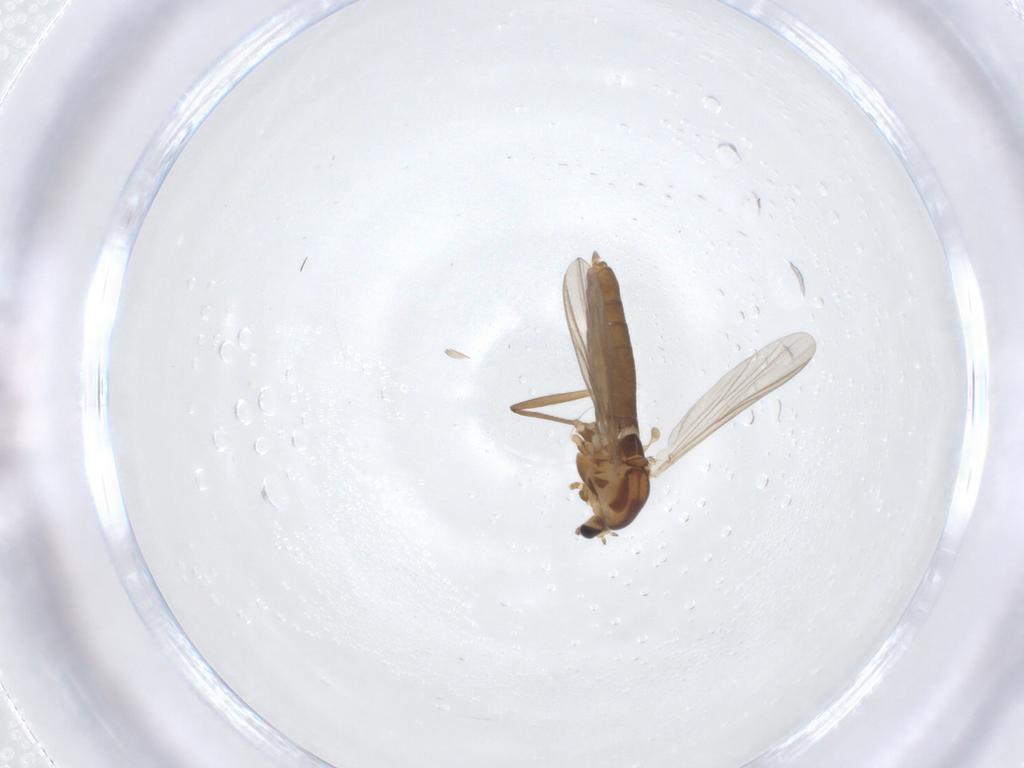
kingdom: Animalia
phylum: Arthropoda
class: Insecta
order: Diptera
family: Chironomidae
